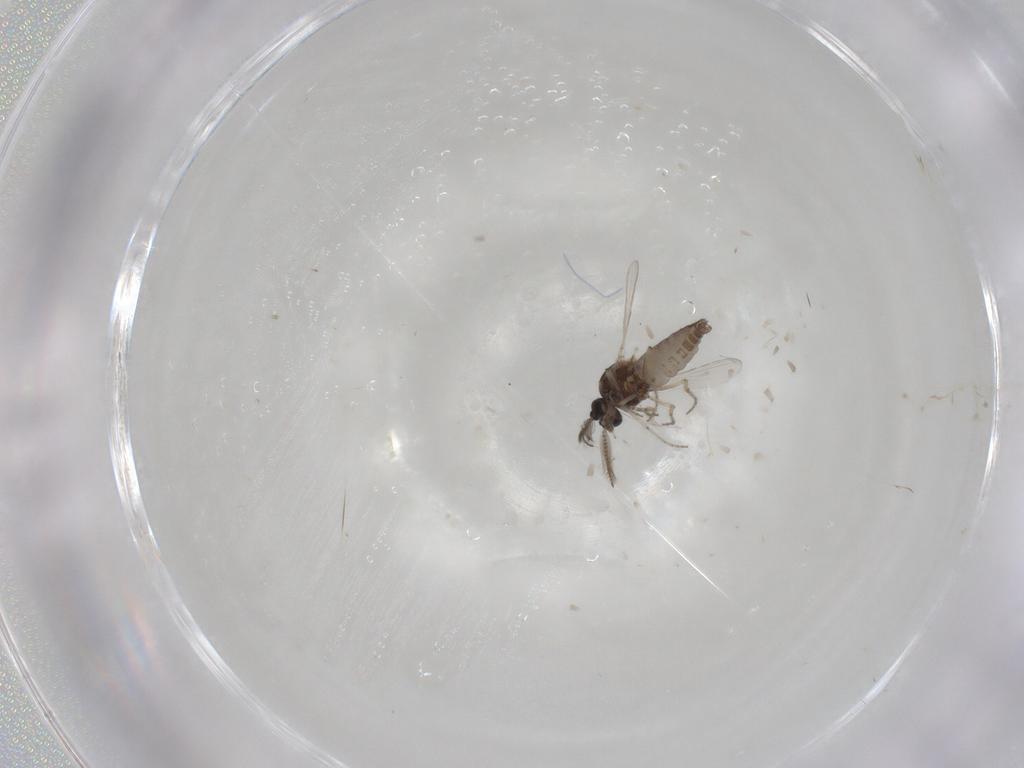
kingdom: Animalia
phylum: Arthropoda
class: Insecta
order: Diptera
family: Ceratopogonidae
